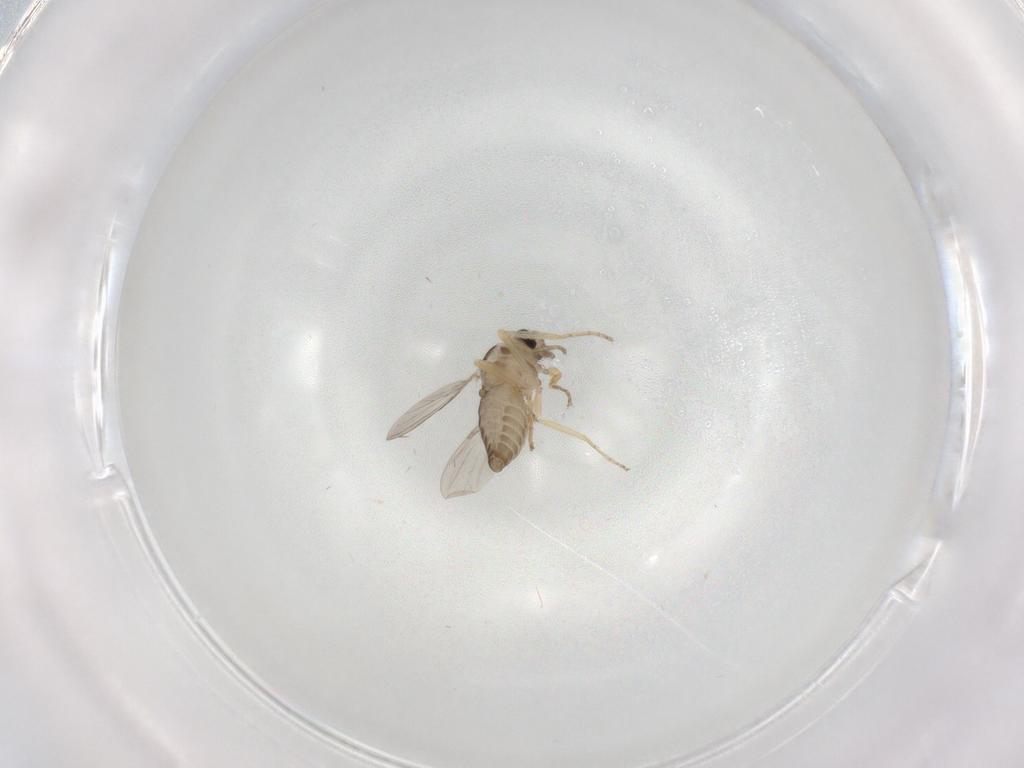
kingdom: Animalia
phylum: Arthropoda
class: Insecta
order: Diptera
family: Ceratopogonidae
